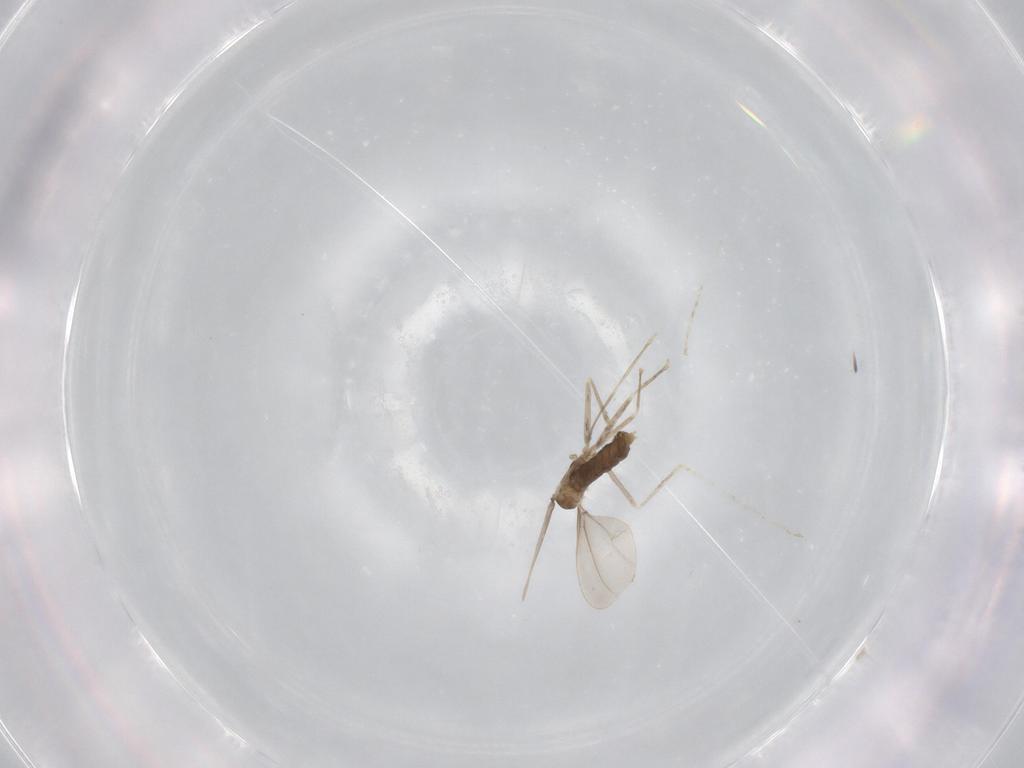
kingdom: Animalia
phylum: Arthropoda
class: Insecta
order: Diptera
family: Cecidomyiidae
